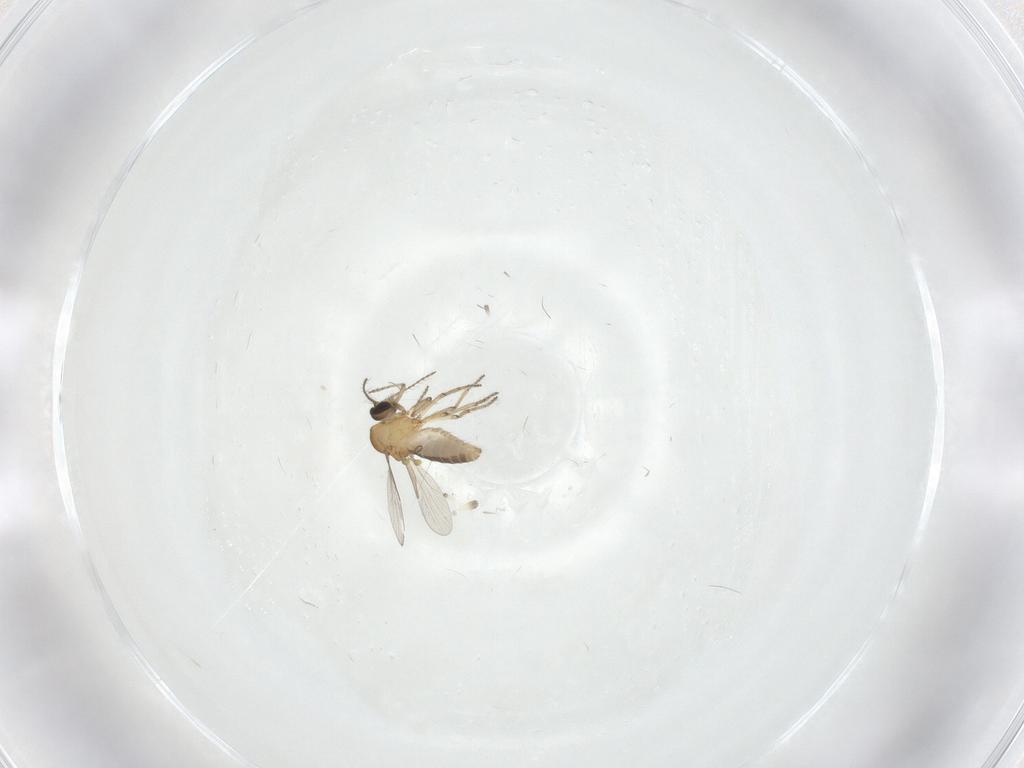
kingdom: Animalia
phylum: Arthropoda
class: Insecta
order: Diptera
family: Ceratopogonidae
